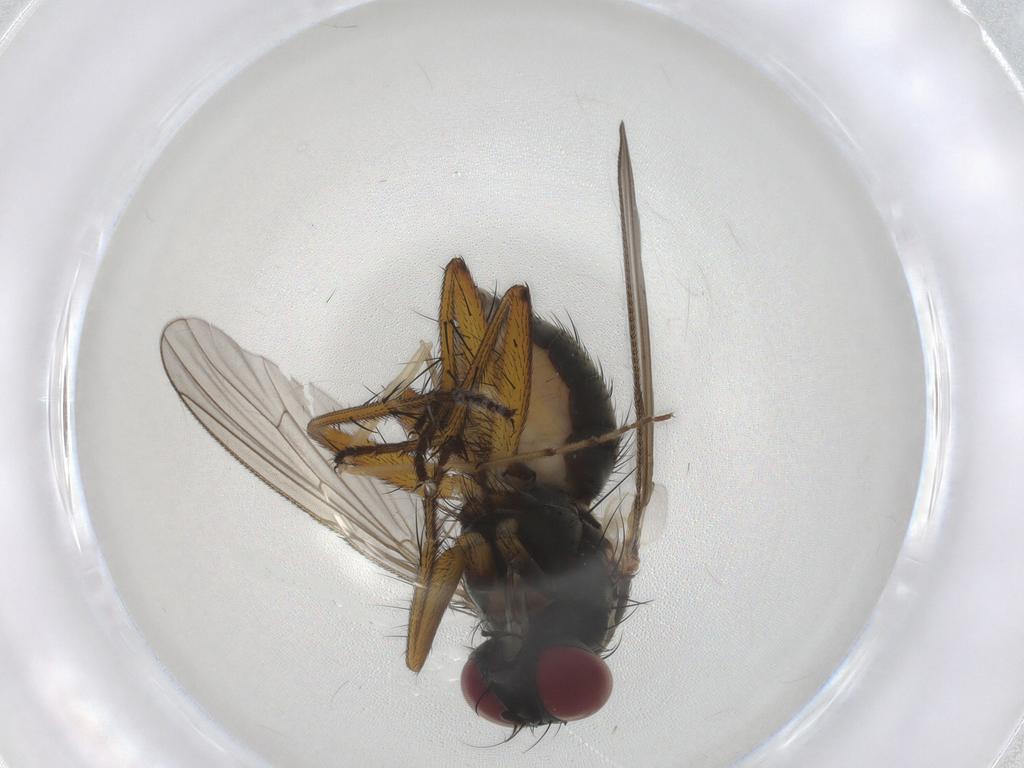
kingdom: Animalia
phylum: Arthropoda
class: Insecta
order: Diptera
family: Muscidae
